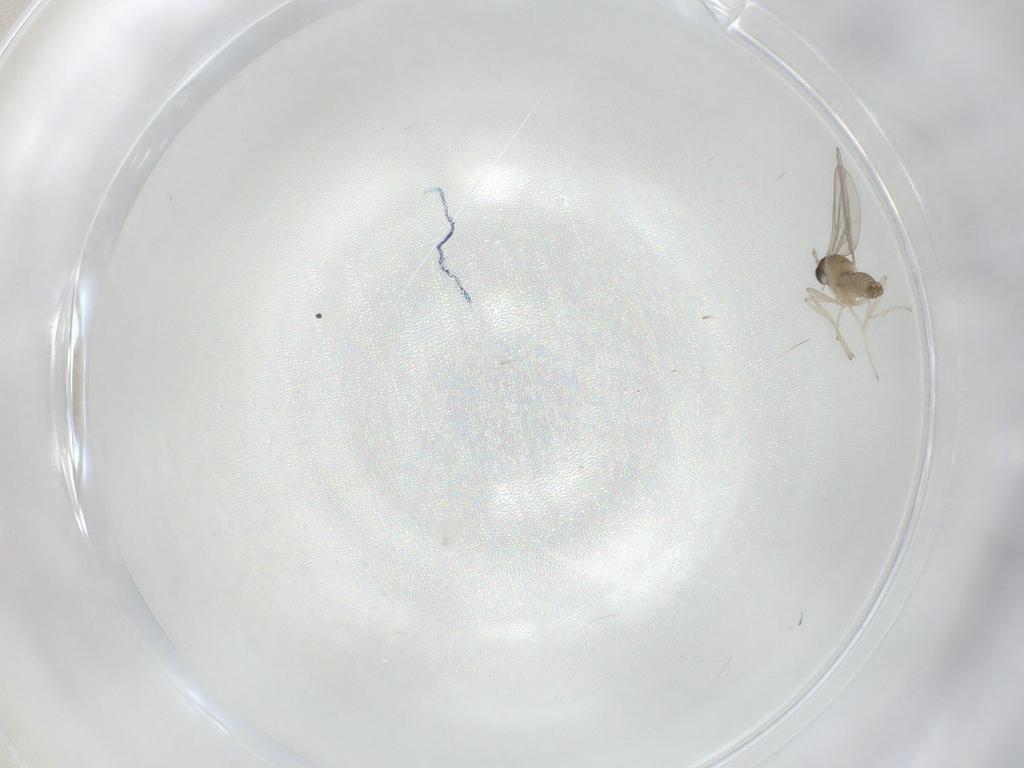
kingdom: Animalia
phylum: Arthropoda
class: Insecta
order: Diptera
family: Cecidomyiidae
